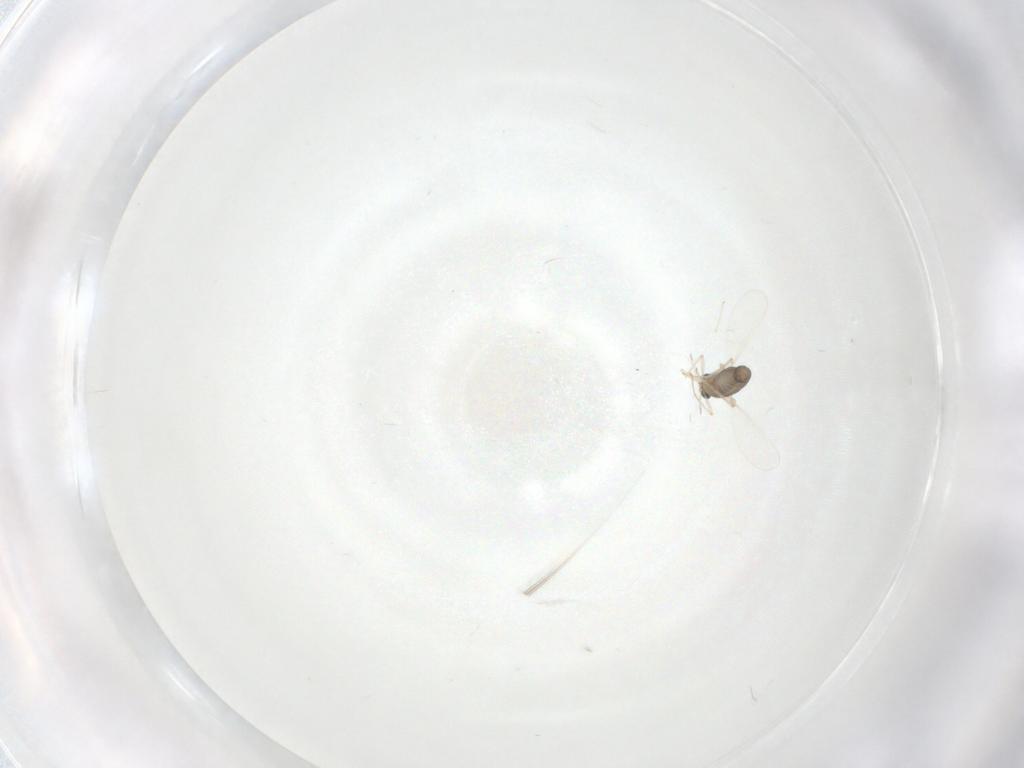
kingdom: Animalia
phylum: Arthropoda
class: Insecta
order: Diptera
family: Chironomidae
